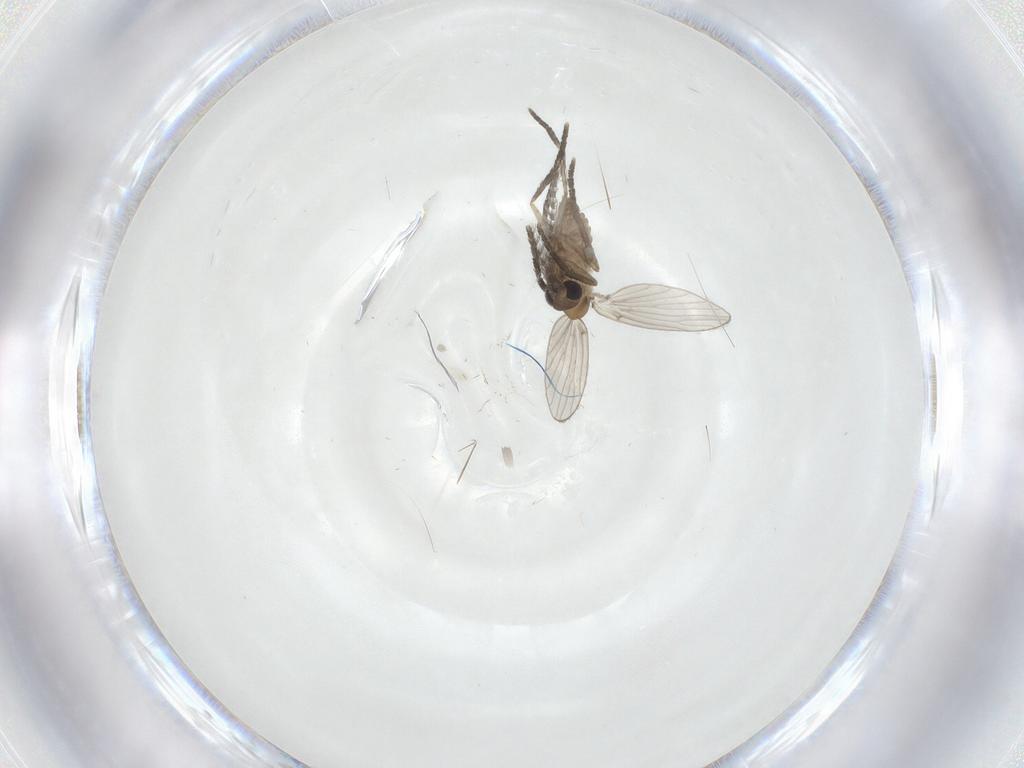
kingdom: Animalia
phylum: Arthropoda
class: Insecta
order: Diptera
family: Psychodidae
